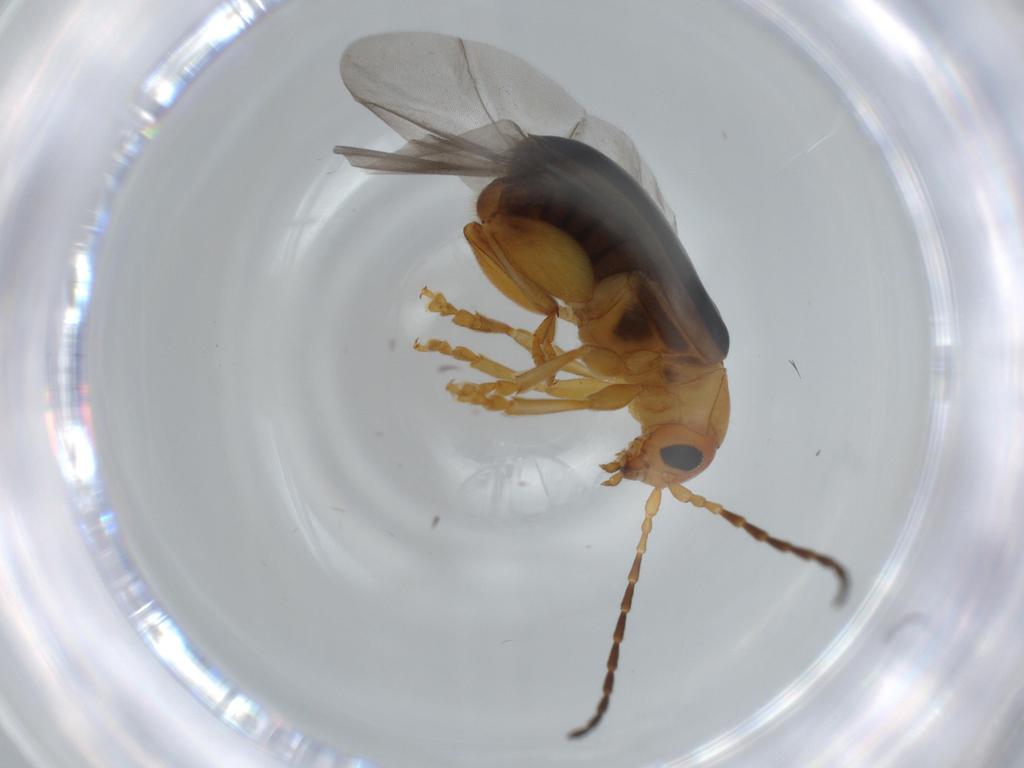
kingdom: Animalia
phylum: Arthropoda
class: Insecta
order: Coleoptera
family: Chrysomelidae
